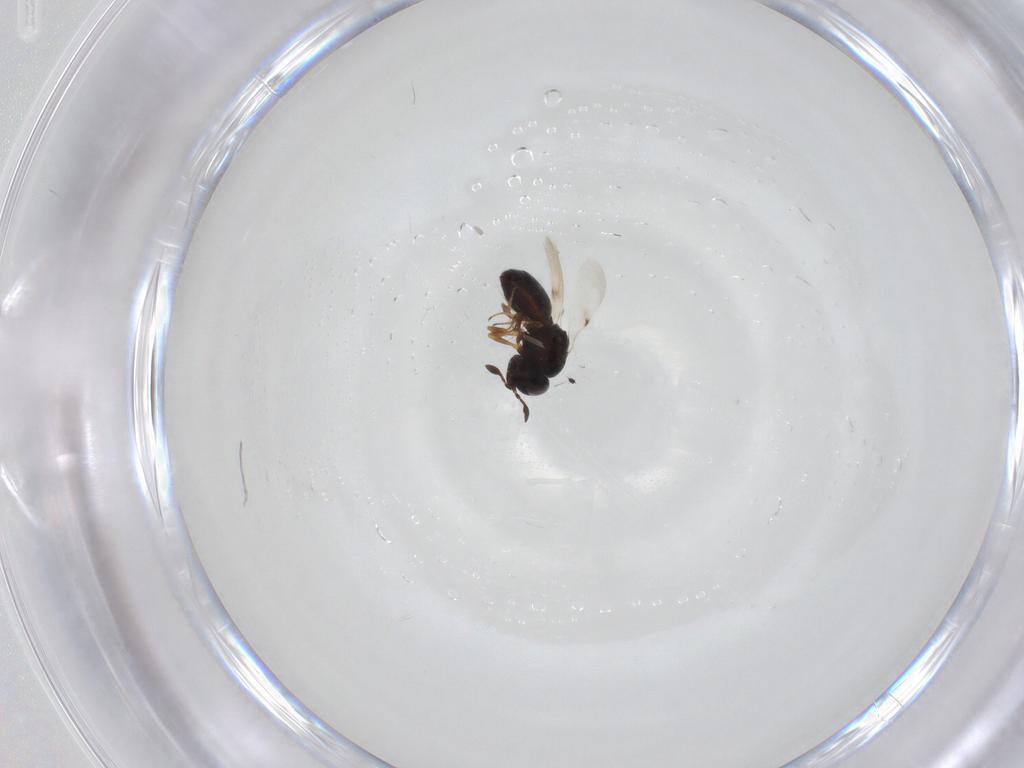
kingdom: Animalia
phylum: Arthropoda
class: Insecta
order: Hymenoptera
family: Scelionidae
